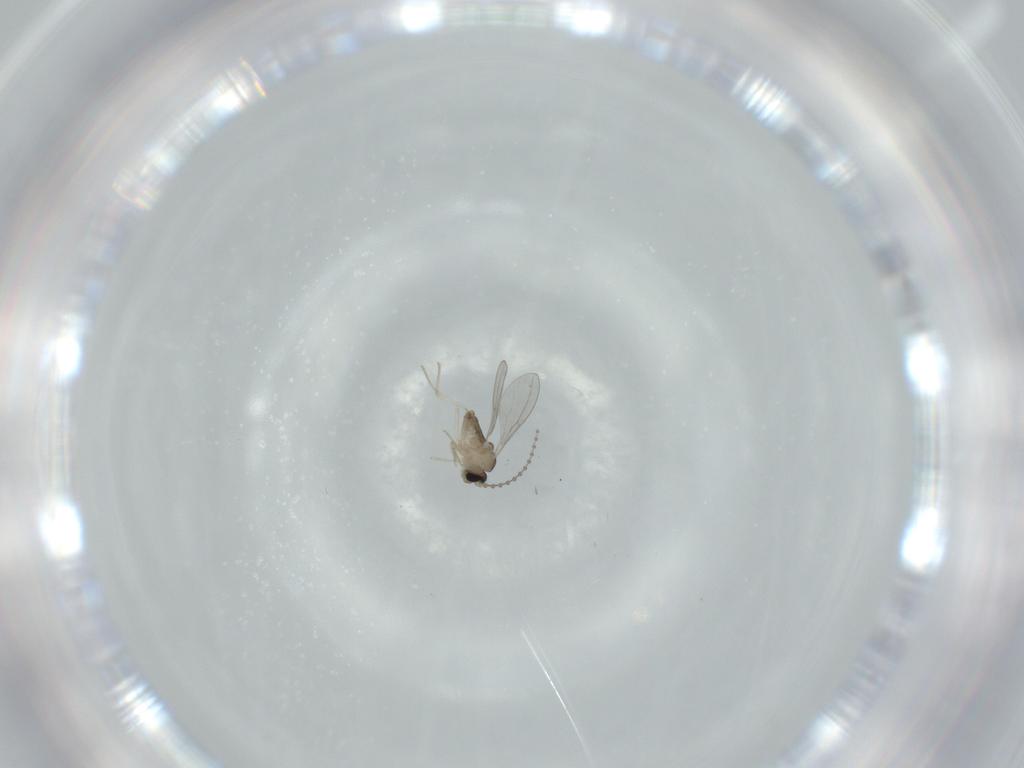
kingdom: Animalia
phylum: Arthropoda
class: Insecta
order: Diptera
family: Cecidomyiidae
